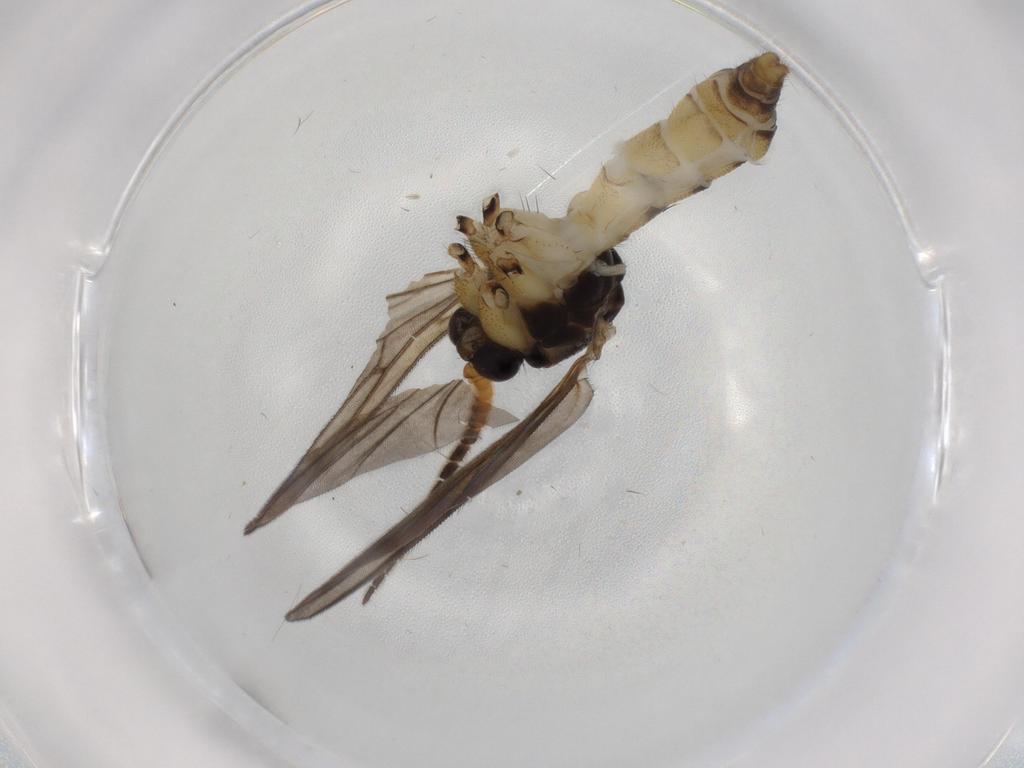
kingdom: Animalia
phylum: Arthropoda
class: Insecta
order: Diptera
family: Mycetophilidae
